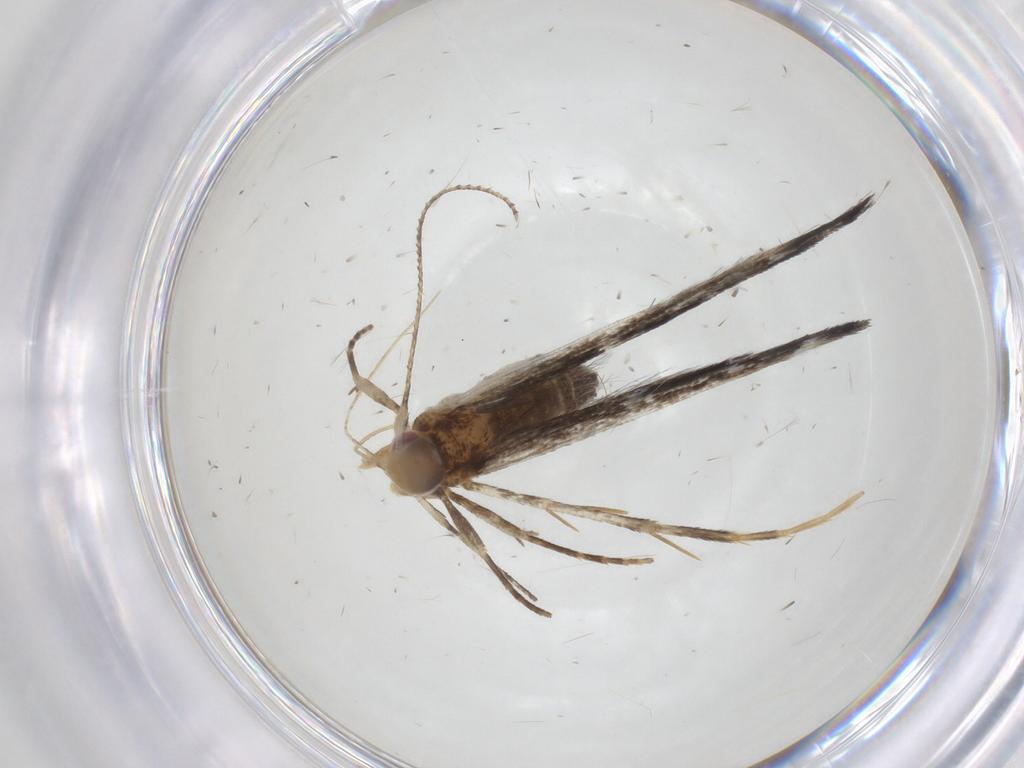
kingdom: Animalia
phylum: Arthropoda
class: Insecta
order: Lepidoptera
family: Cosmopterigidae
